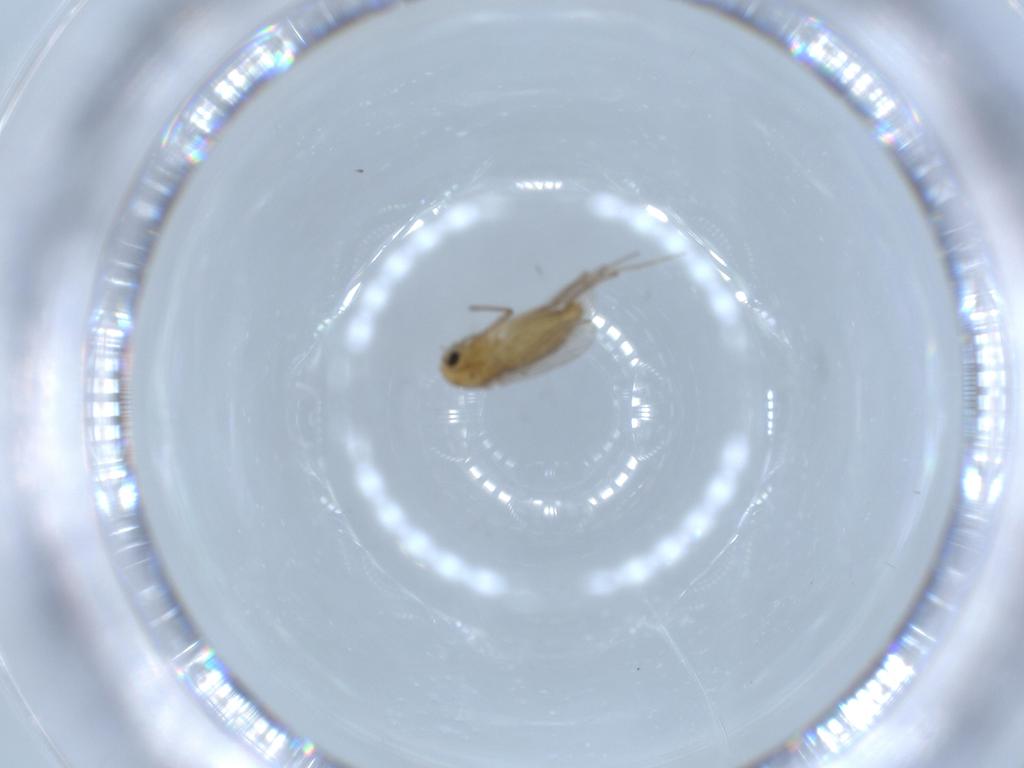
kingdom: Animalia
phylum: Arthropoda
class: Insecta
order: Diptera
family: Chironomidae
